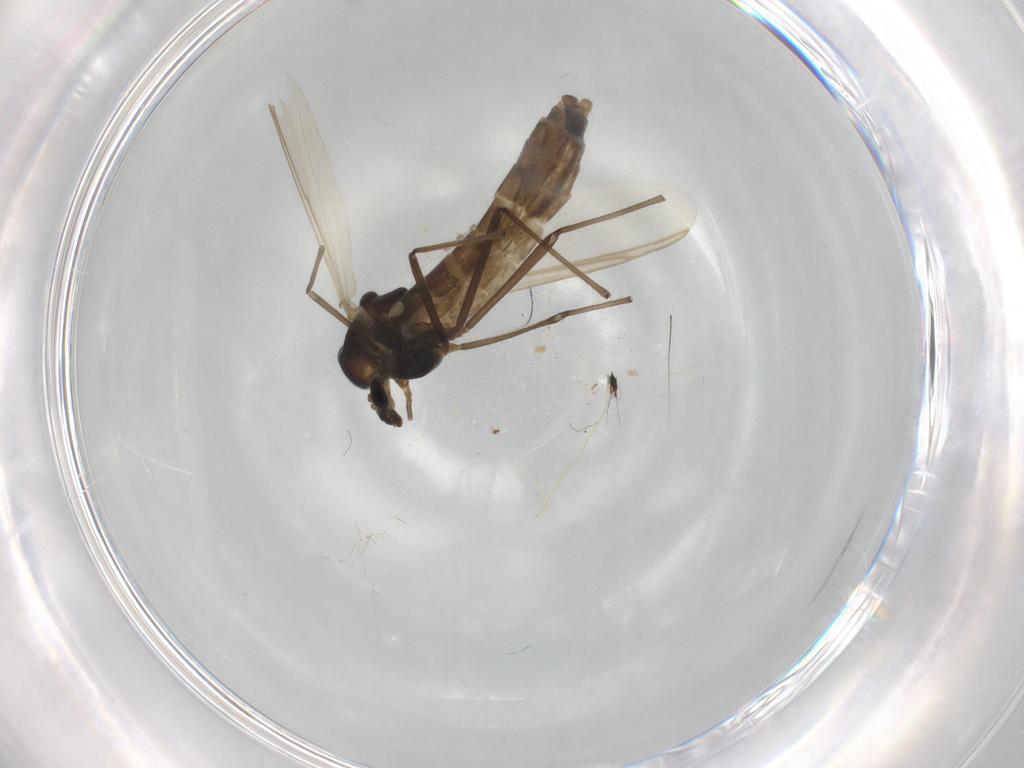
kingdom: Animalia
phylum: Arthropoda
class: Insecta
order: Diptera
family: Chironomidae
